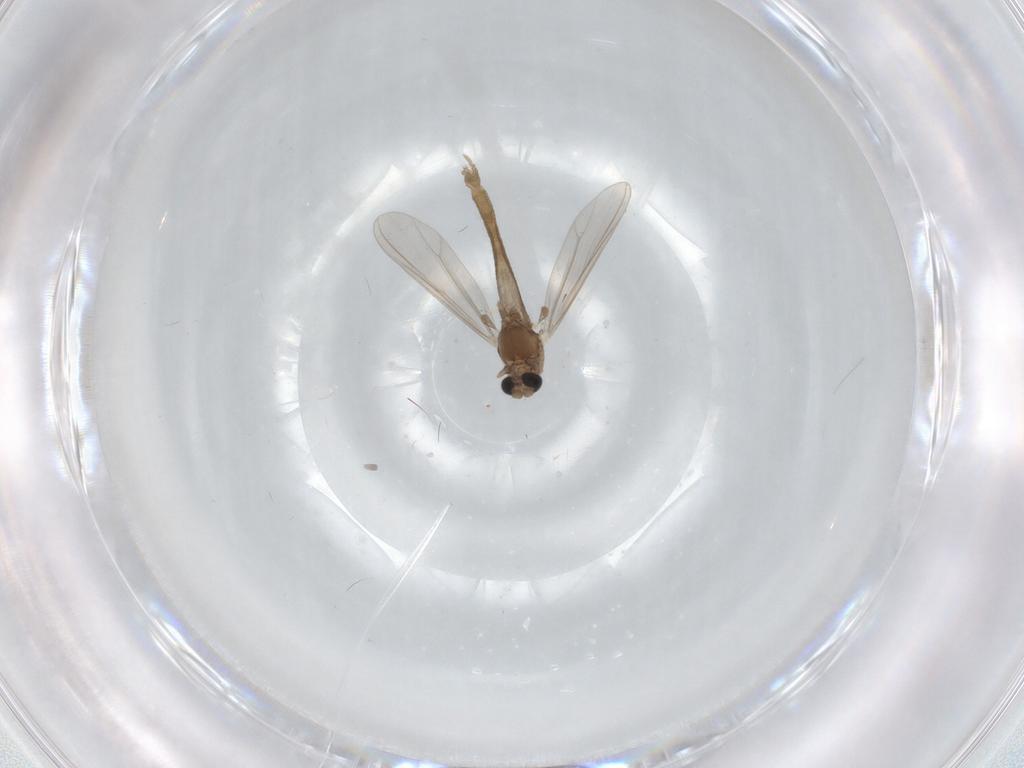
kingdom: Animalia
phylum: Arthropoda
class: Insecta
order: Diptera
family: Chironomidae
